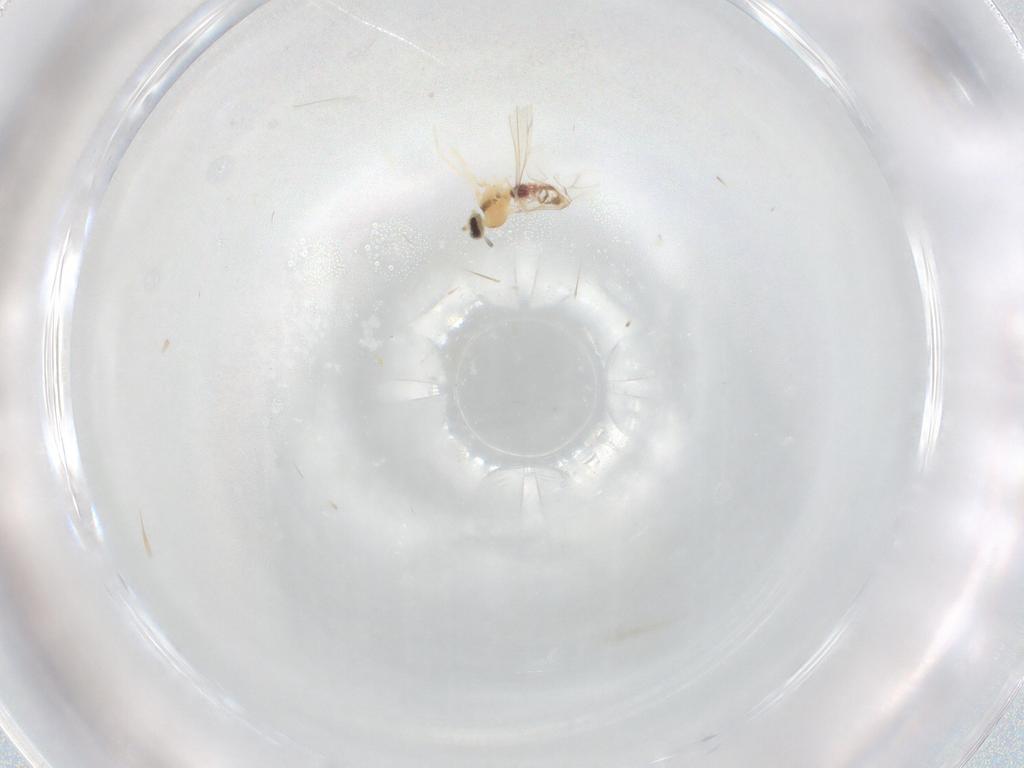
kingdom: Animalia
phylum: Arthropoda
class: Insecta
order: Diptera
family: Cecidomyiidae
